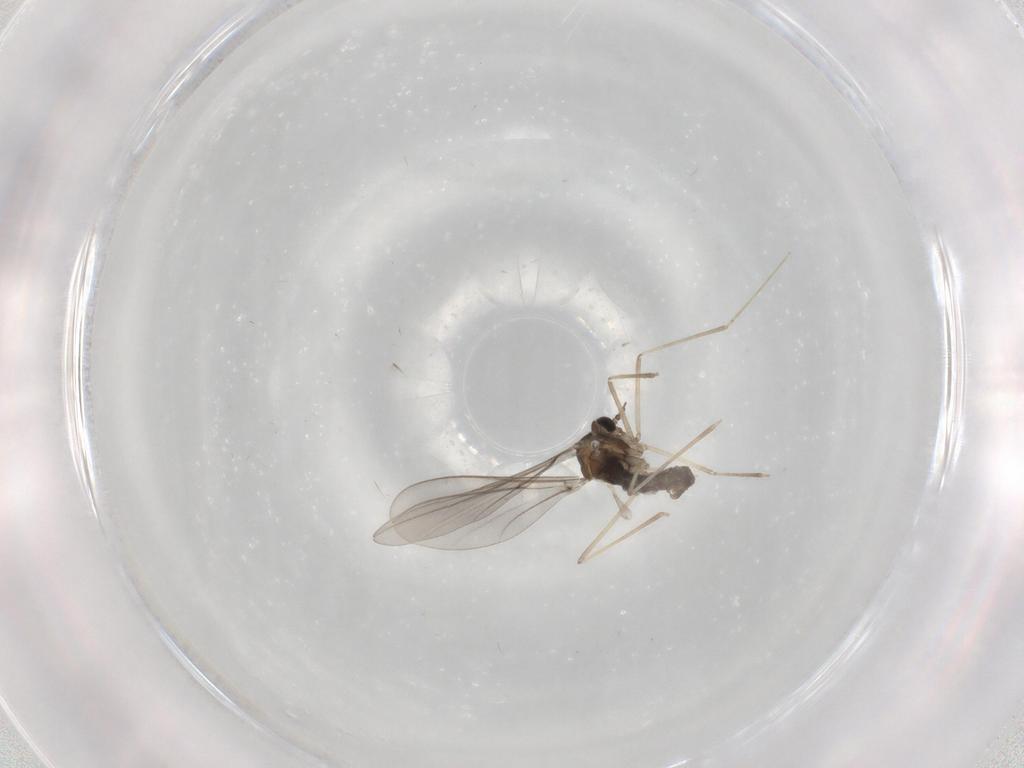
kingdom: Animalia
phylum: Arthropoda
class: Insecta
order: Diptera
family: Cecidomyiidae
